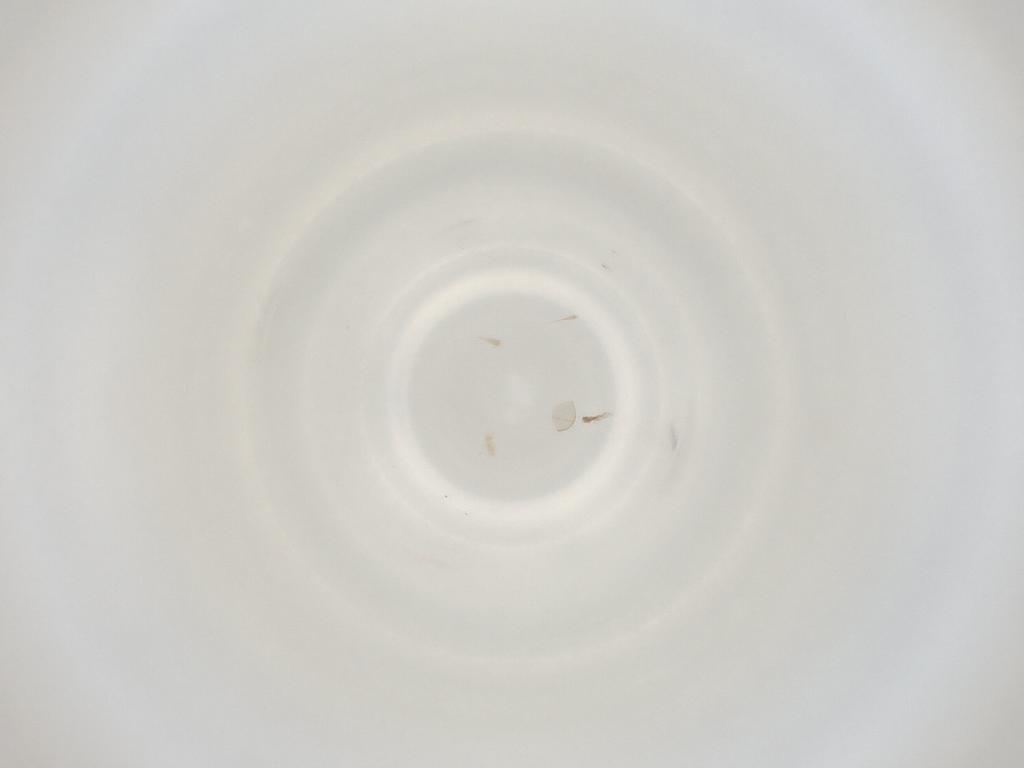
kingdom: Animalia
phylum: Arthropoda
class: Insecta
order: Diptera
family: Cecidomyiidae
